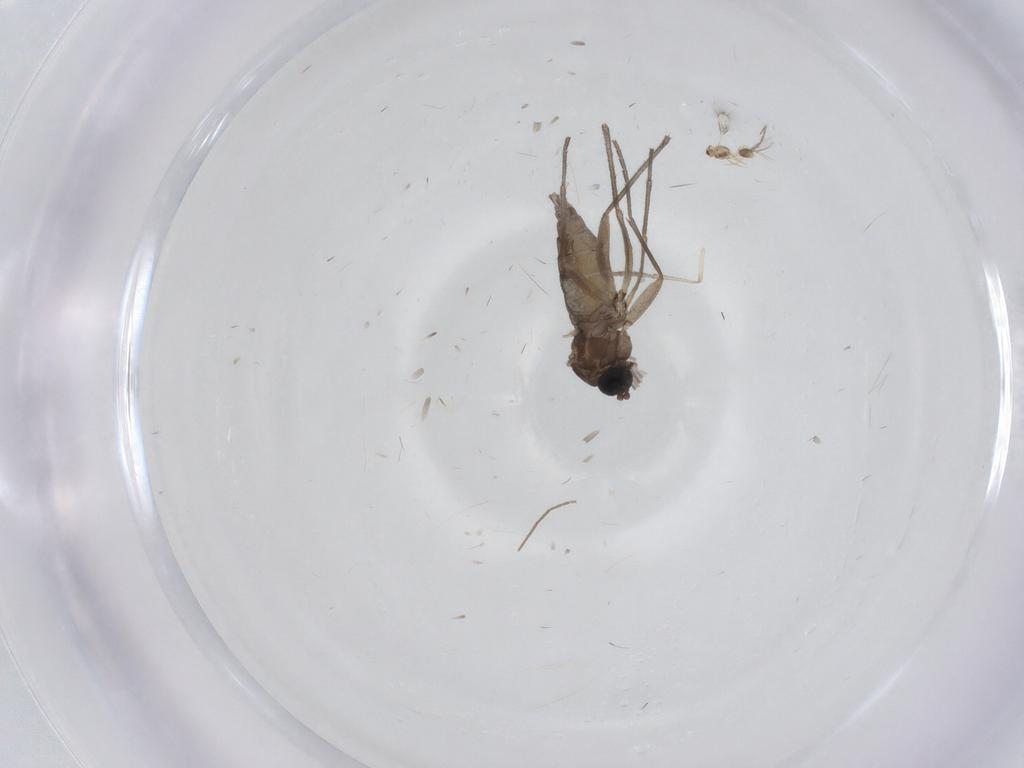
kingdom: Animalia
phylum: Arthropoda
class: Insecta
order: Diptera
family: Sciaridae
